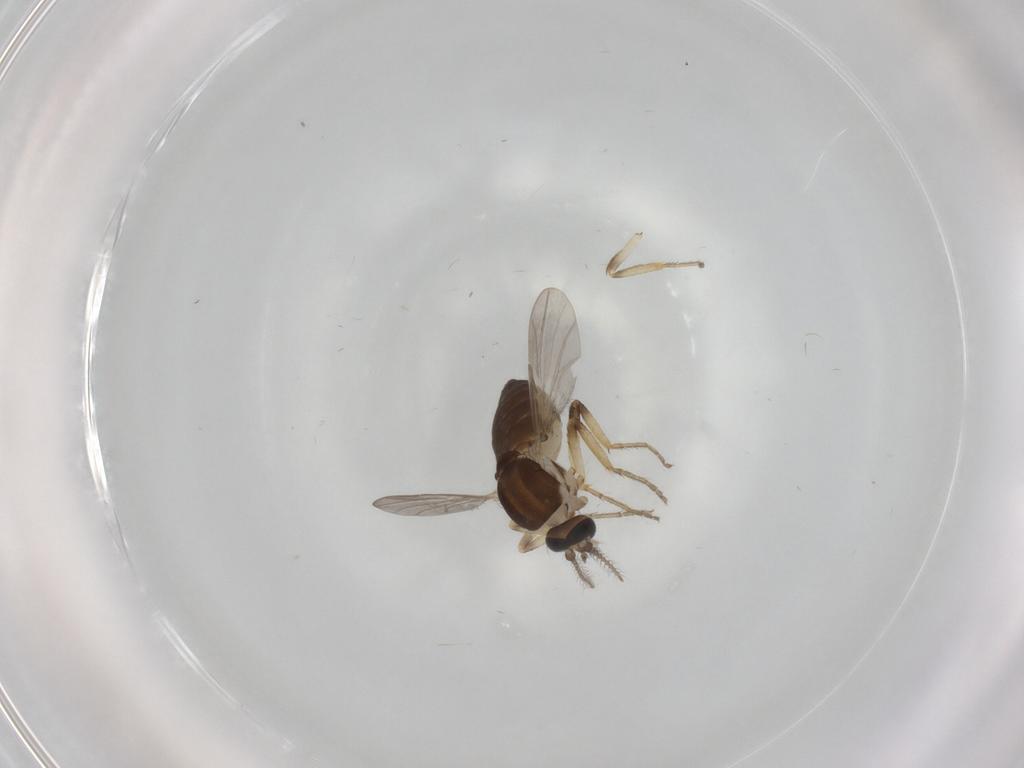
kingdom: Animalia
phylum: Arthropoda
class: Insecta
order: Diptera
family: Ceratopogonidae
